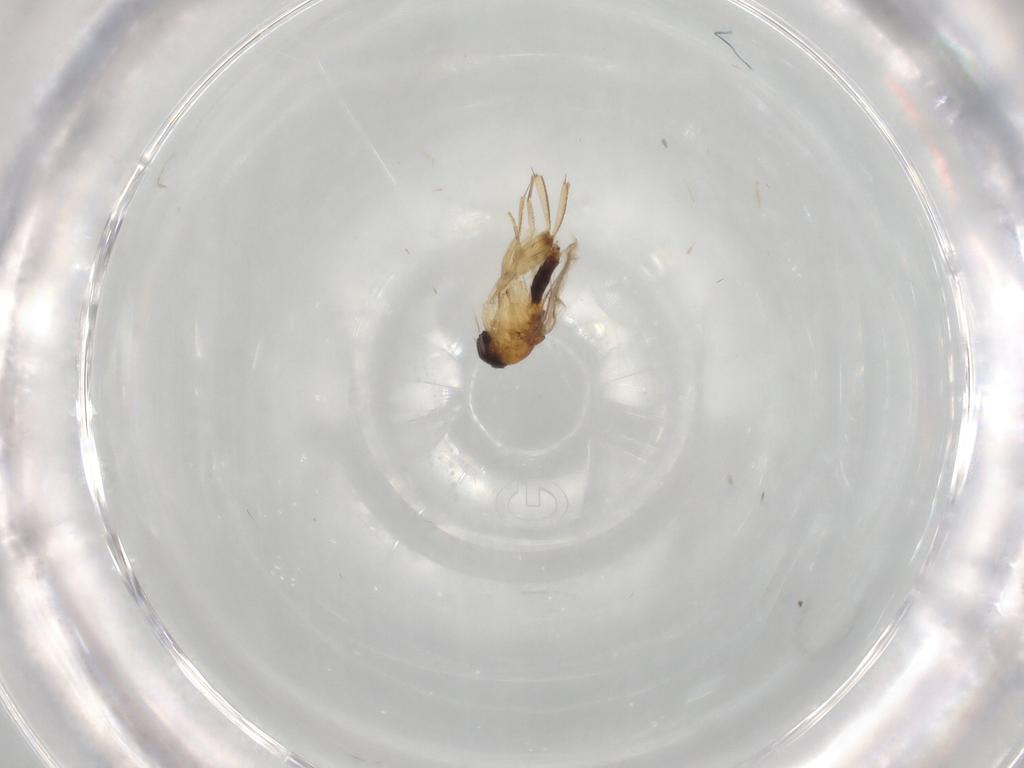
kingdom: Animalia
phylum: Arthropoda
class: Insecta
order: Diptera
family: Phoridae
